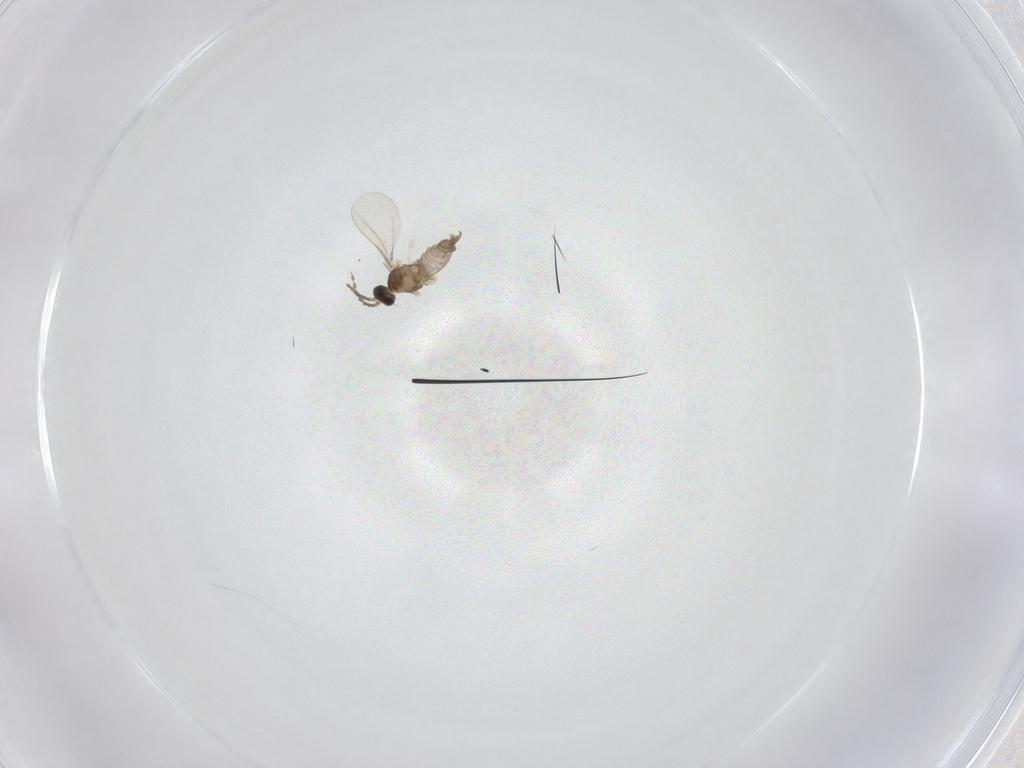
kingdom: Animalia
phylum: Arthropoda
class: Insecta
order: Diptera
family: Cecidomyiidae
